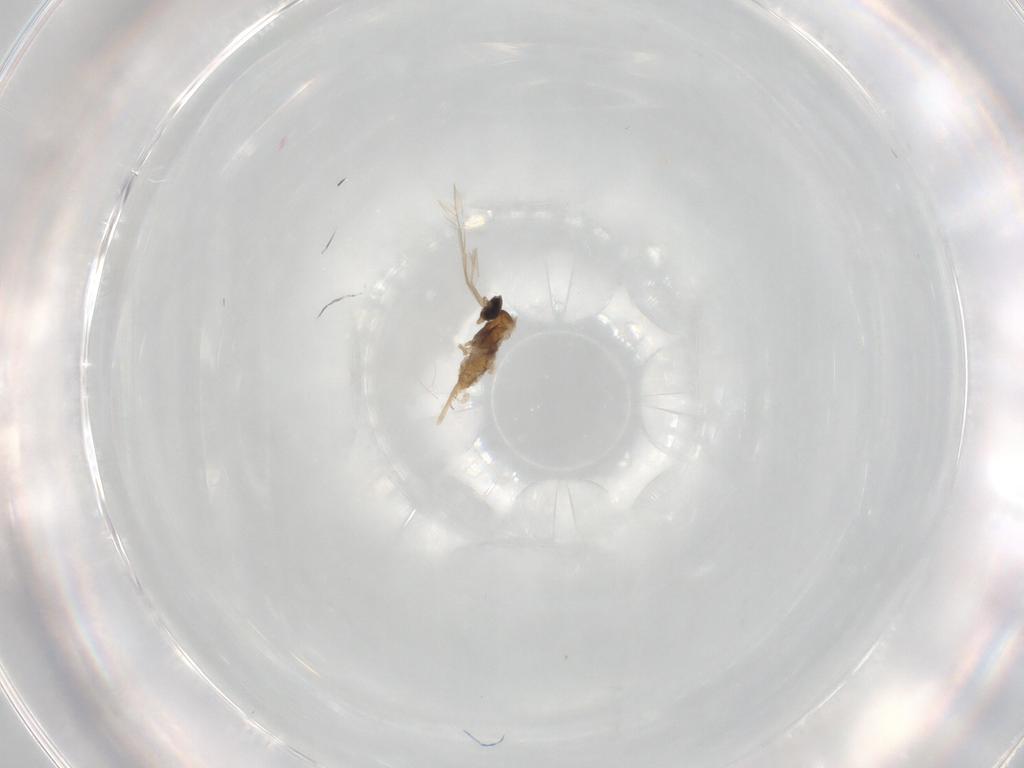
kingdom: Animalia
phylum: Arthropoda
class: Insecta
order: Diptera
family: Cecidomyiidae
